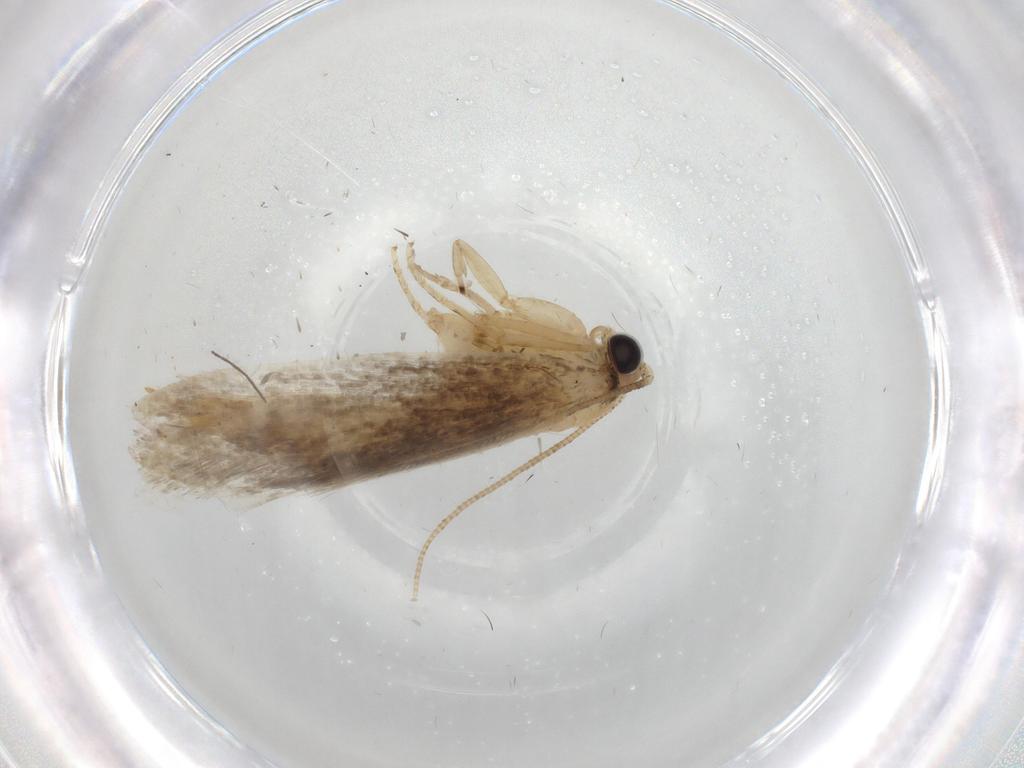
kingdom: Animalia
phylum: Arthropoda
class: Insecta
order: Lepidoptera
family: Tineidae
